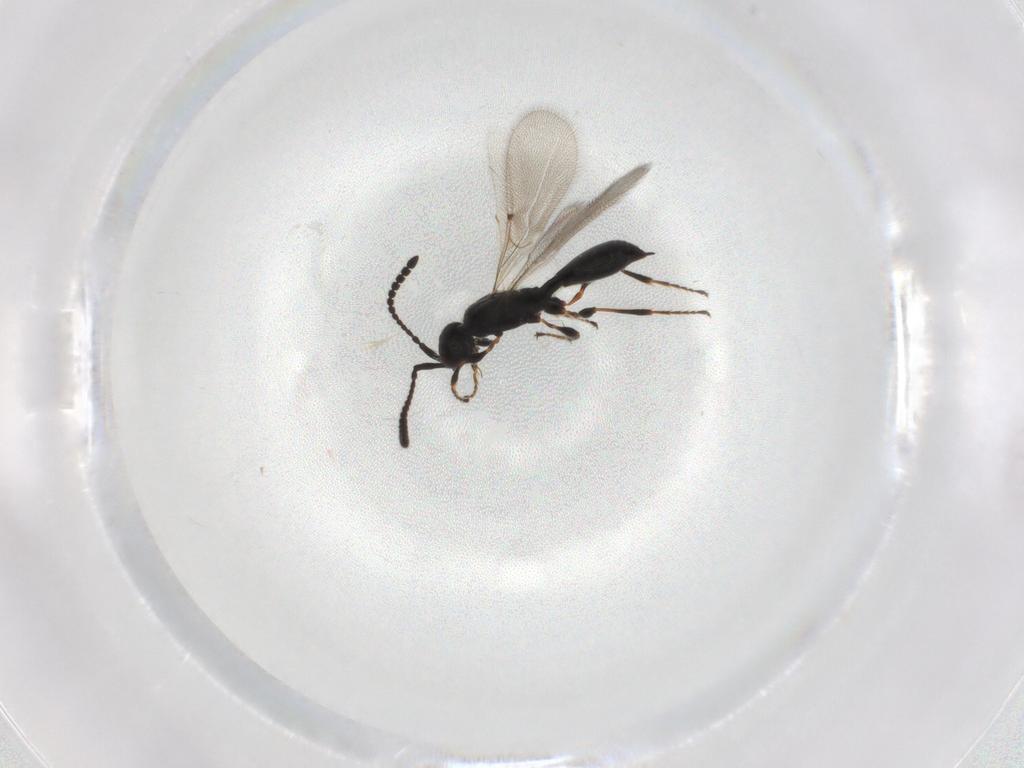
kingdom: Animalia
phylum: Arthropoda
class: Insecta
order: Hymenoptera
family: Diapriidae
